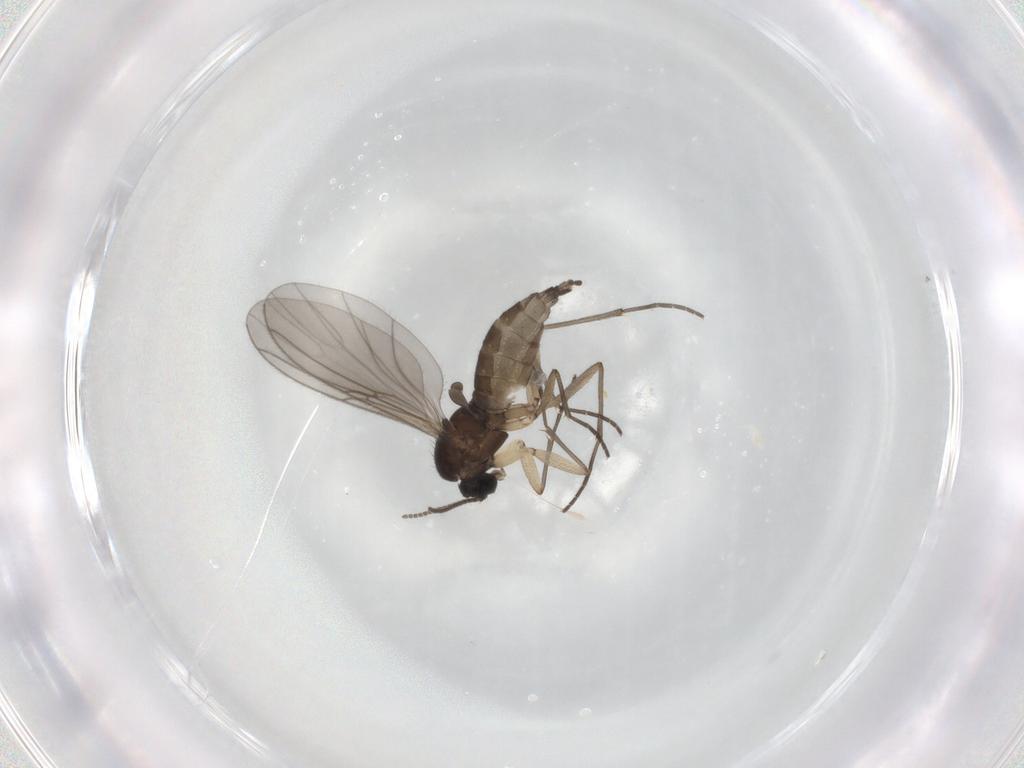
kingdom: Animalia
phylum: Arthropoda
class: Insecta
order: Diptera
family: Sciaridae
